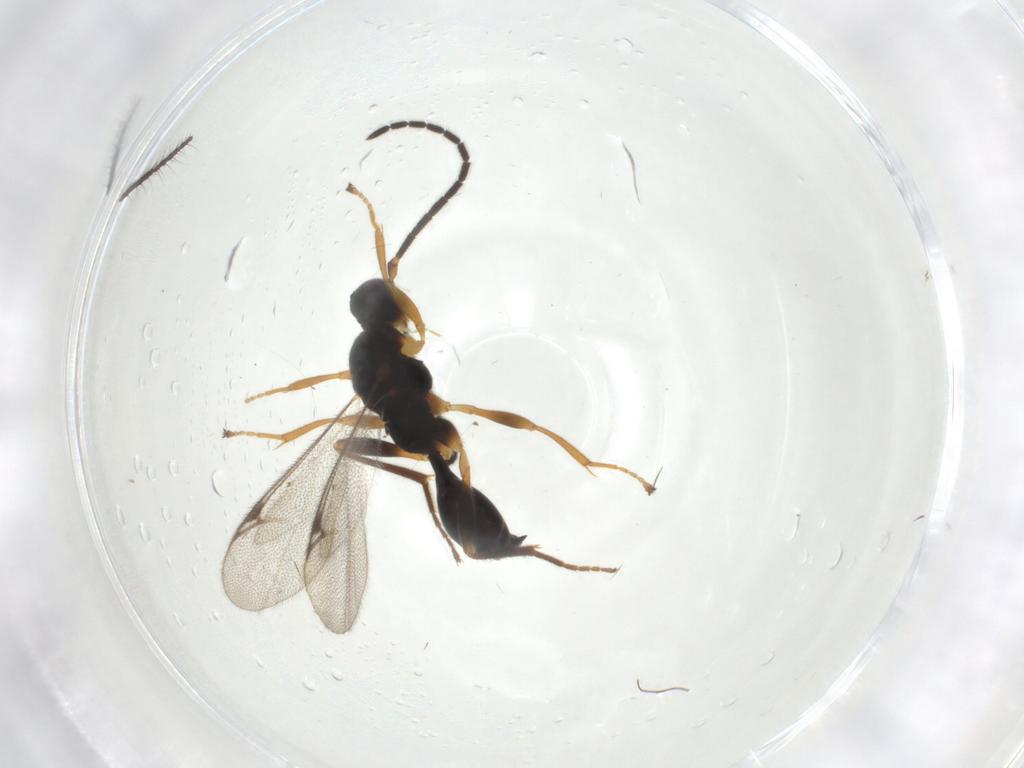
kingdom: Animalia
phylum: Arthropoda
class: Insecta
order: Hymenoptera
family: Proctotrupidae
